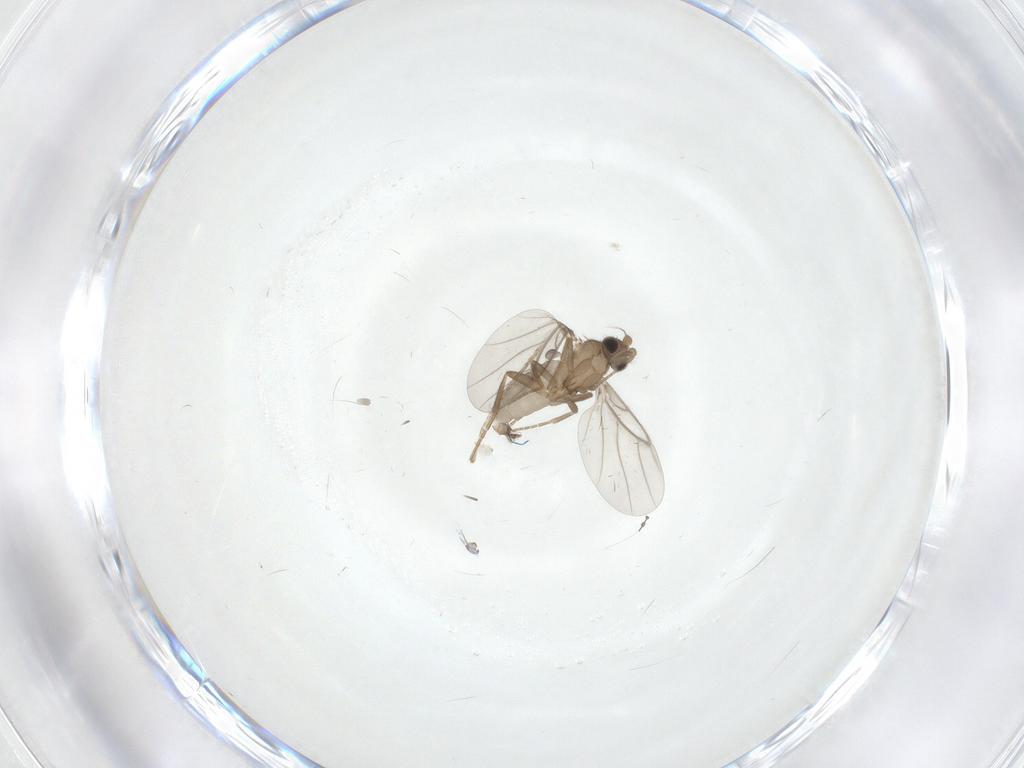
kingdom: Animalia
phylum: Arthropoda
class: Insecta
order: Diptera
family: Cecidomyiidae
